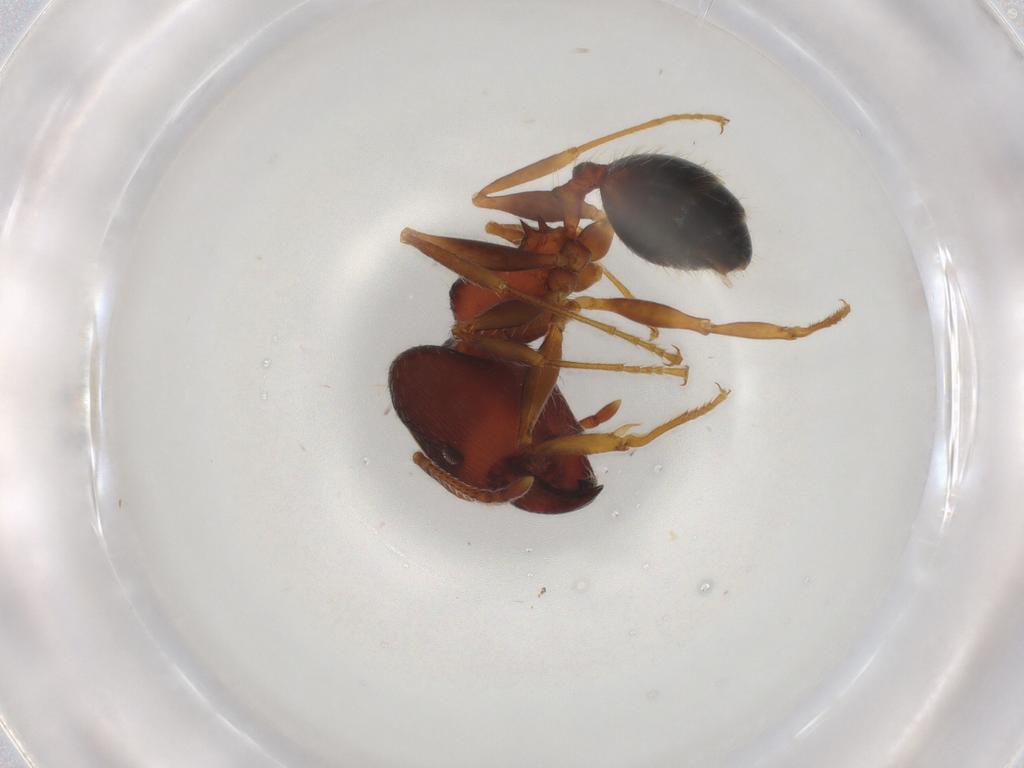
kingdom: Animalia
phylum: Arthropoda
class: Insecta
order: Hymenoptera
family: Formicidae
